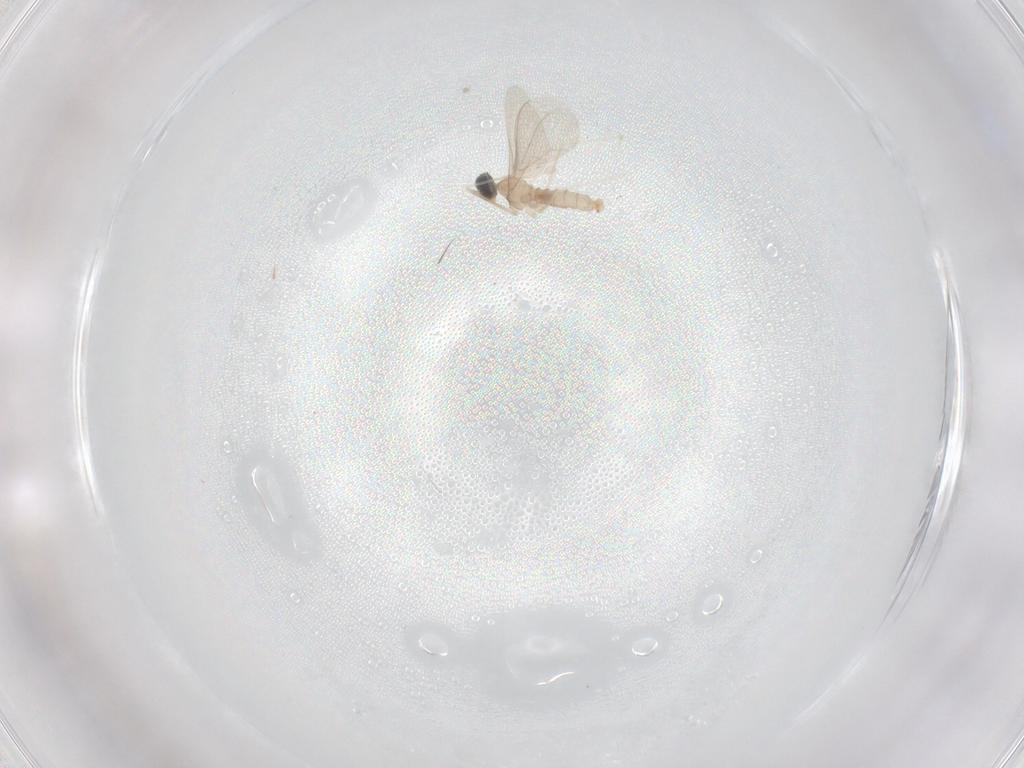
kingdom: Animalia
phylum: Arthropoda
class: Insecta
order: Diptera
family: Cecidomyiidae
